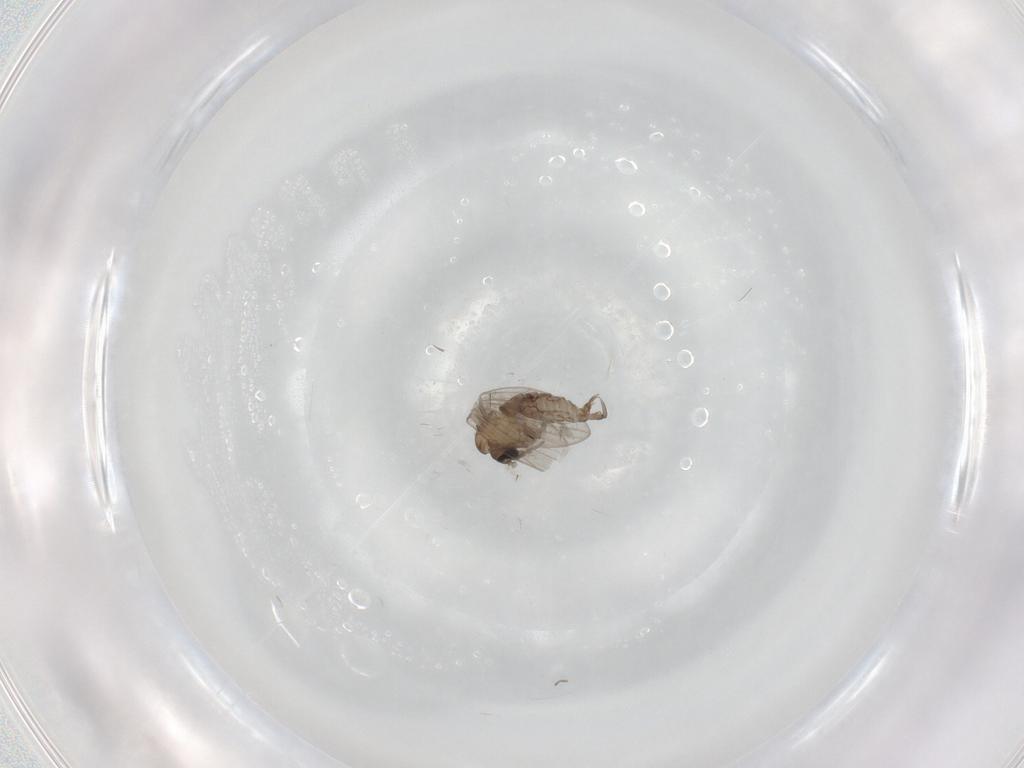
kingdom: Animalia
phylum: Arthropoda
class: Insecta
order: Diptera
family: Psychodidae
